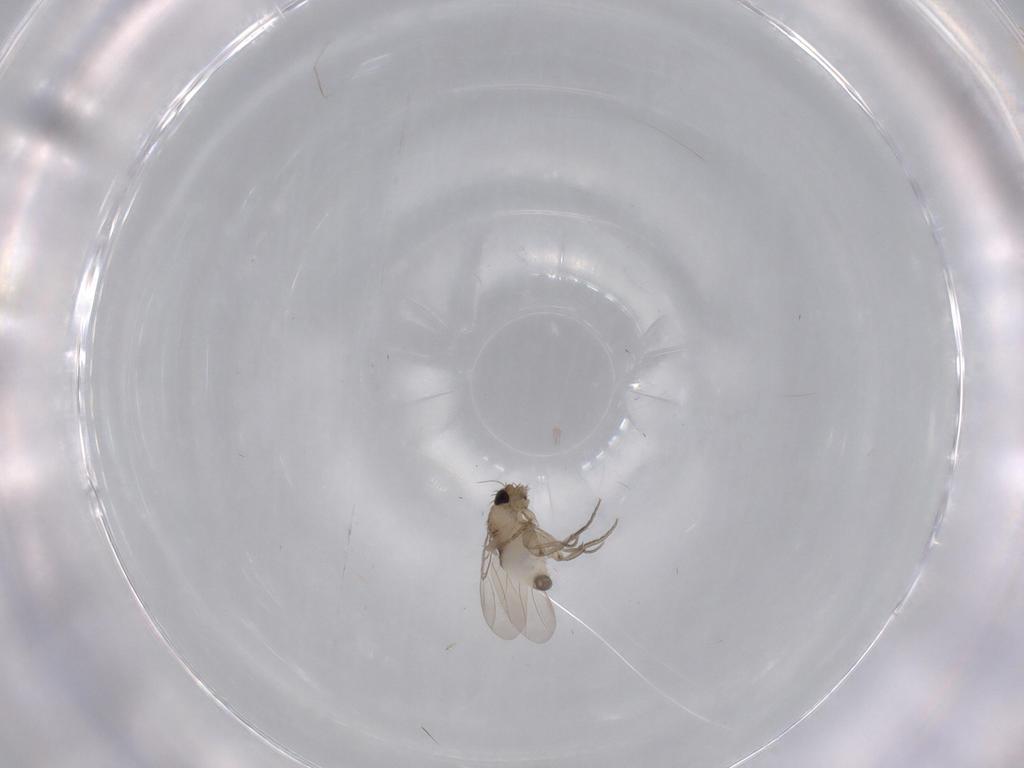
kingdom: Animalia
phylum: Arthropoda
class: Insecta
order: Diptera
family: Phoridae
